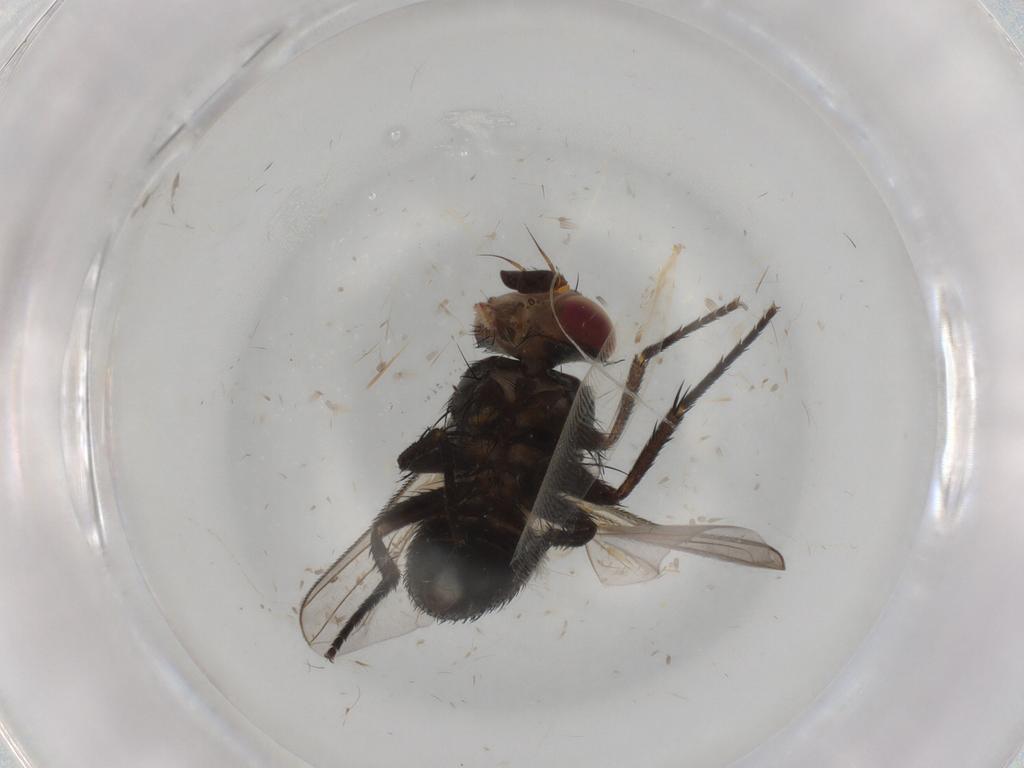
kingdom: Animalia
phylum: Arthropoda
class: Insecta
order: Diptera
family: Tachinidae
